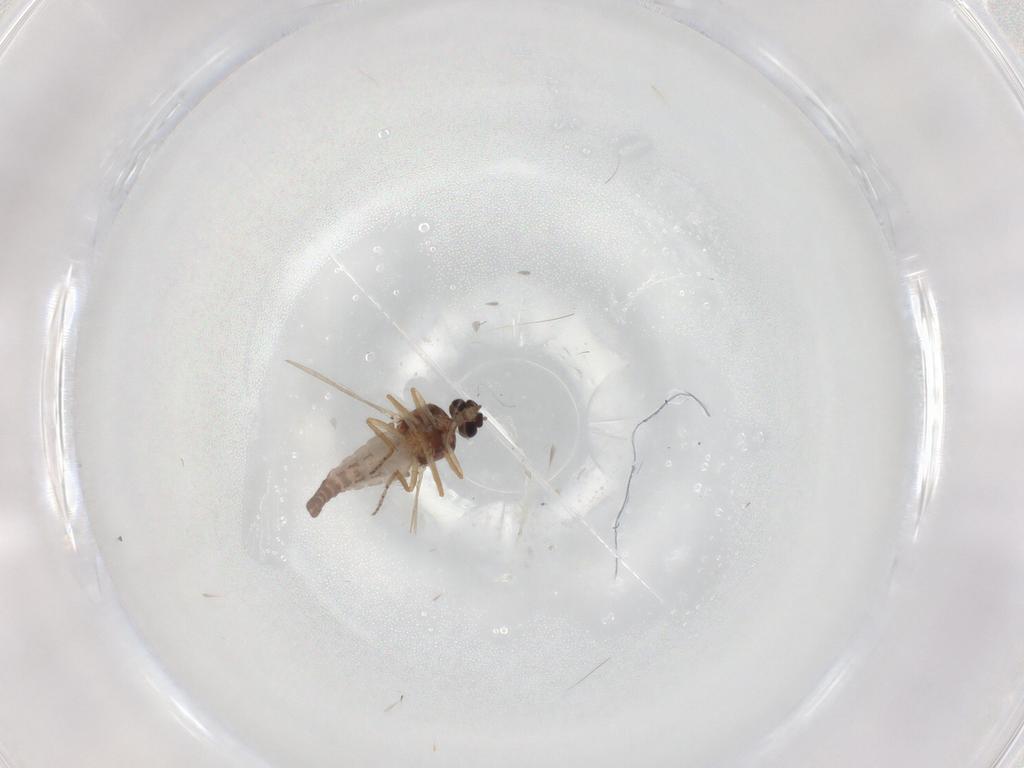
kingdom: Animalia
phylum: Arthropoda
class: Insecta
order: Diptera
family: Ceratopogonidae
